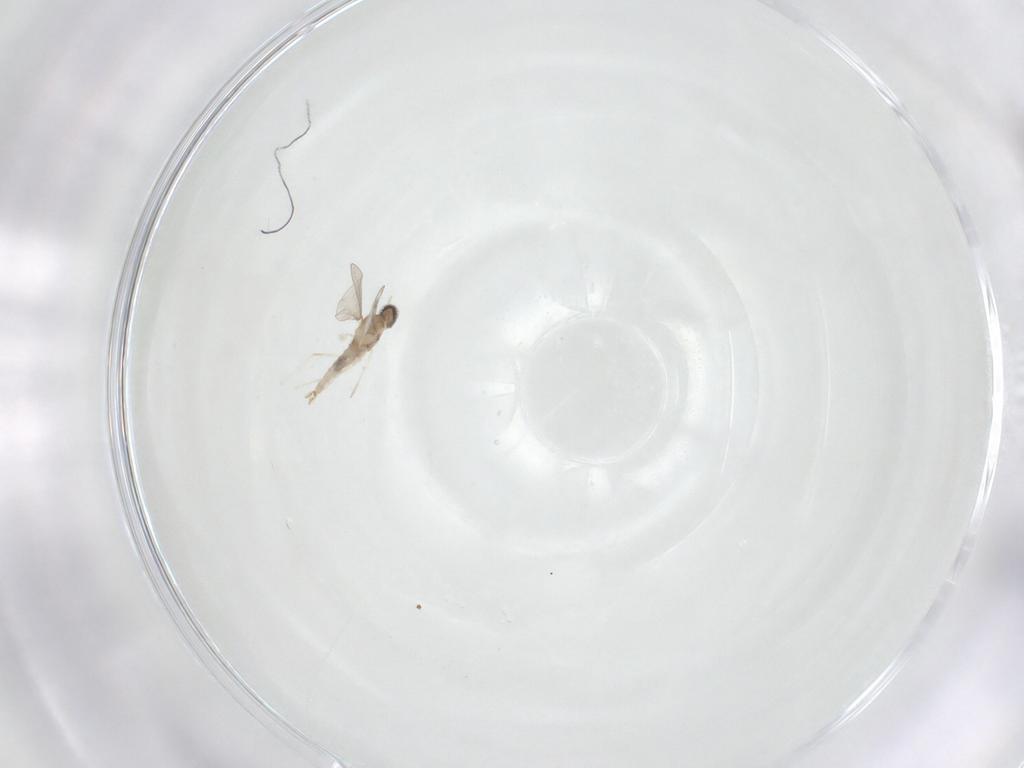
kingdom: Animalia
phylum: Arthropoda
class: Insecta
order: Diptera
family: Cecidomyiidae
